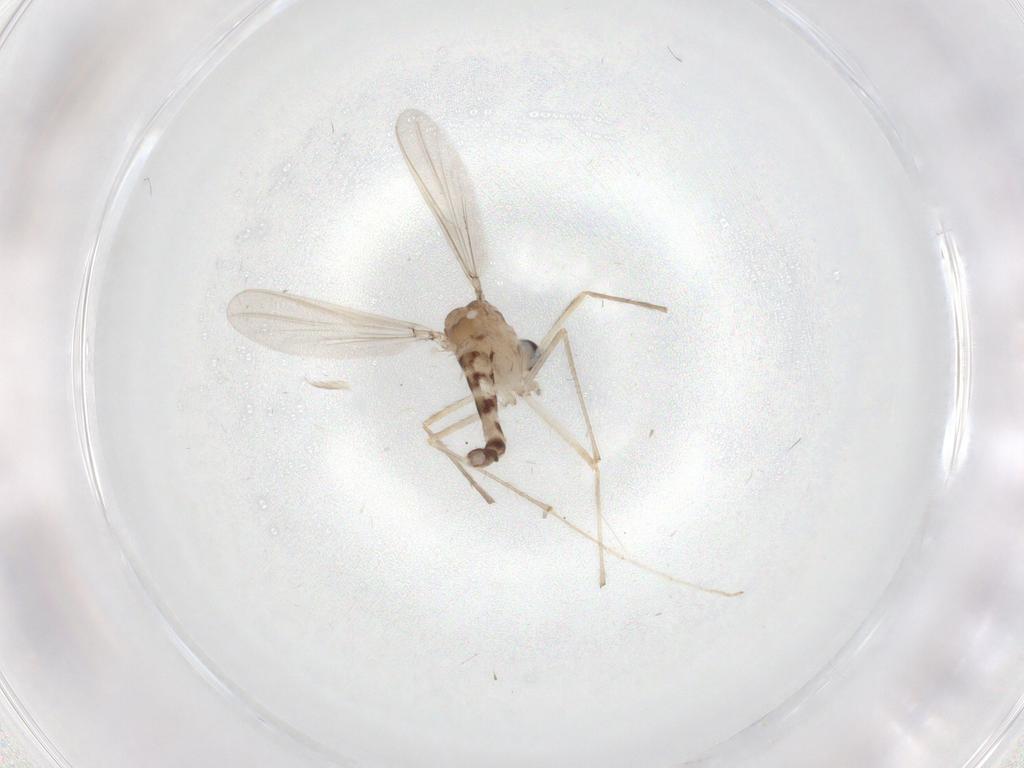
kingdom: Animalia
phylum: Arthropoda
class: Insecta
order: Diptera
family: Chironomidae
